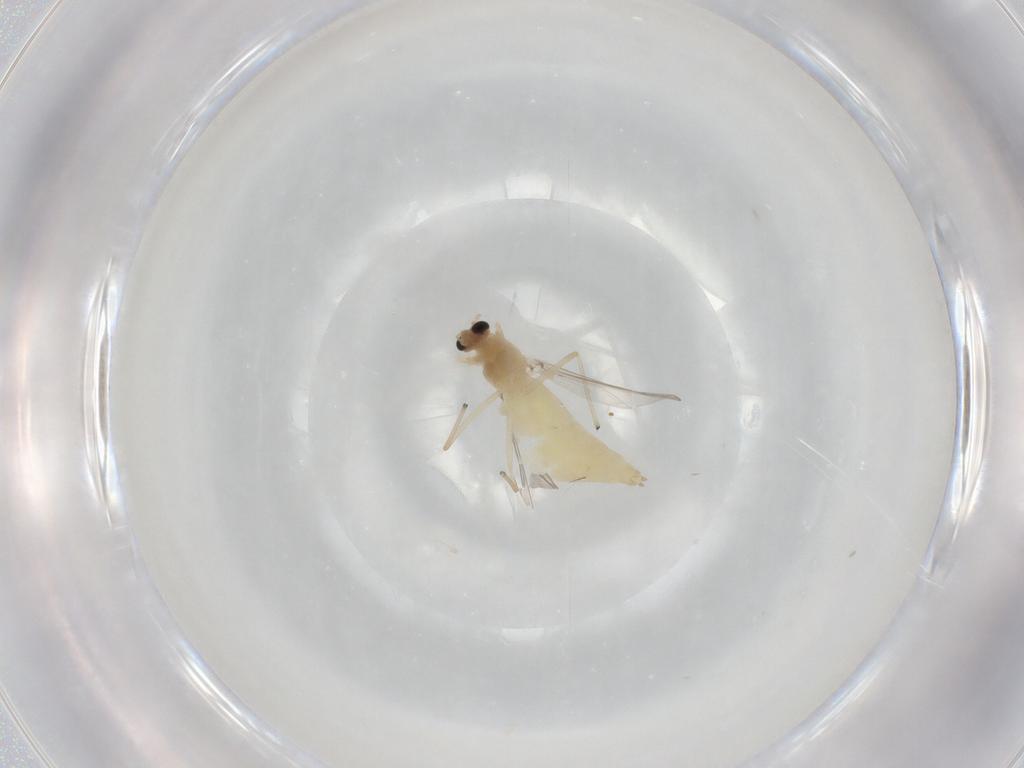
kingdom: Animalia
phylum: Arthropoda
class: Insecta
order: Diptera
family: Chironomidae
